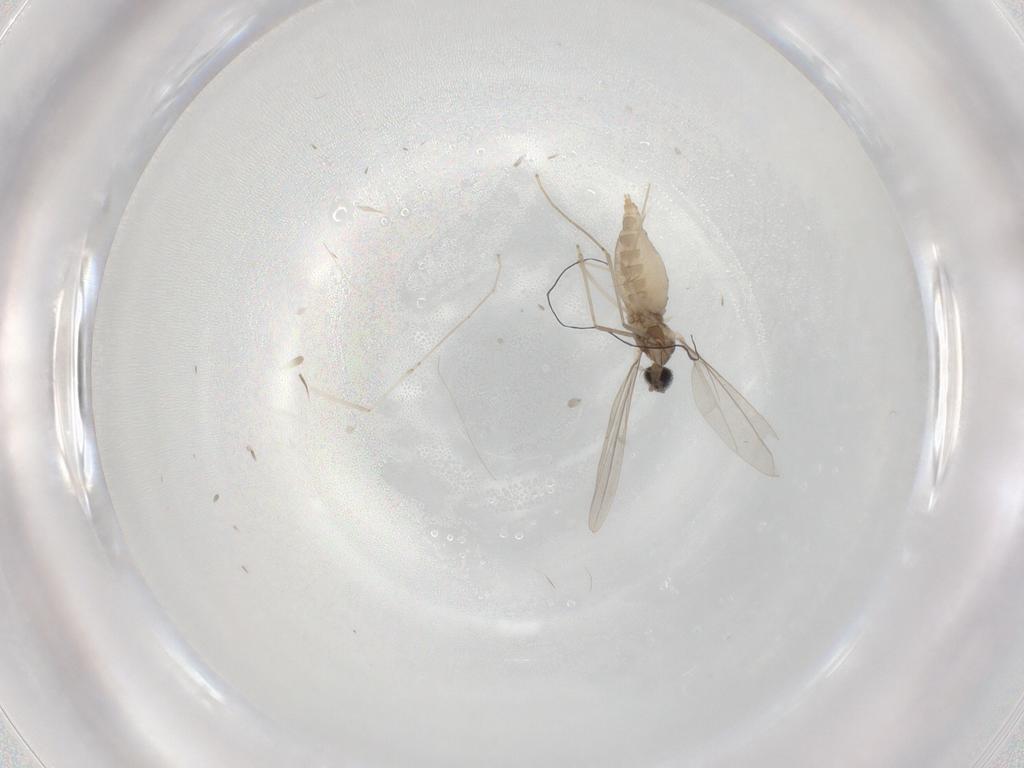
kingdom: Animalia
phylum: Arthropoda
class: Insecta
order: Diptera
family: Cecidomyiidae
